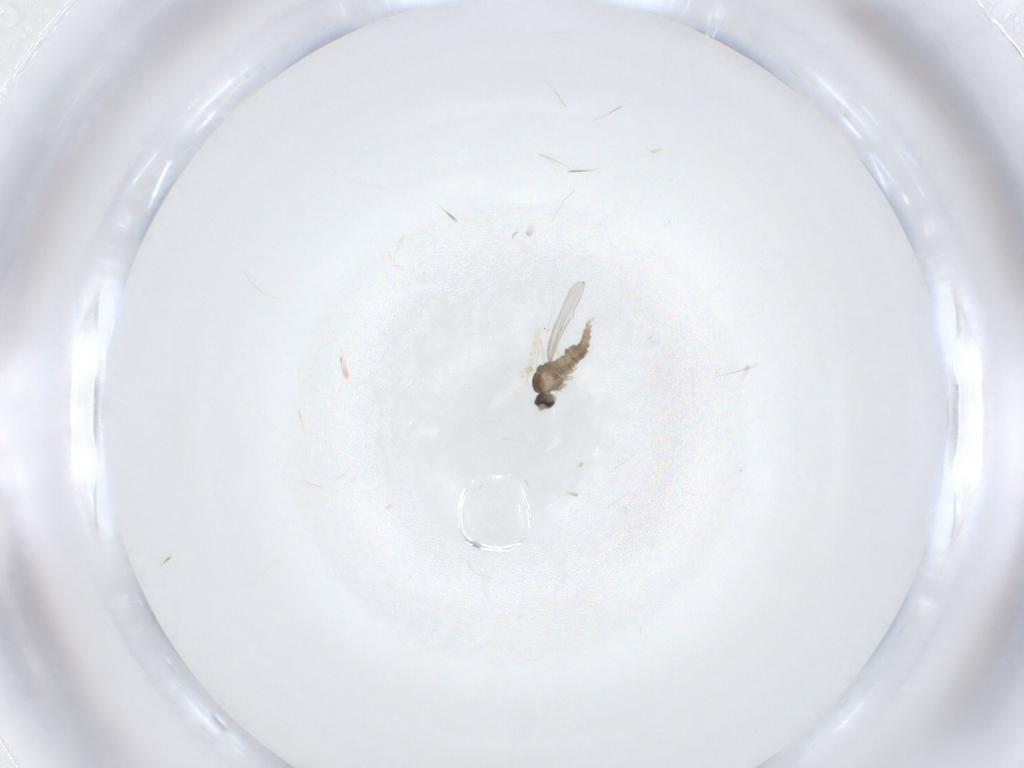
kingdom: Animalia
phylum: Arthropoda
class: Insecta
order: Diptera
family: Cecidomyiidae
